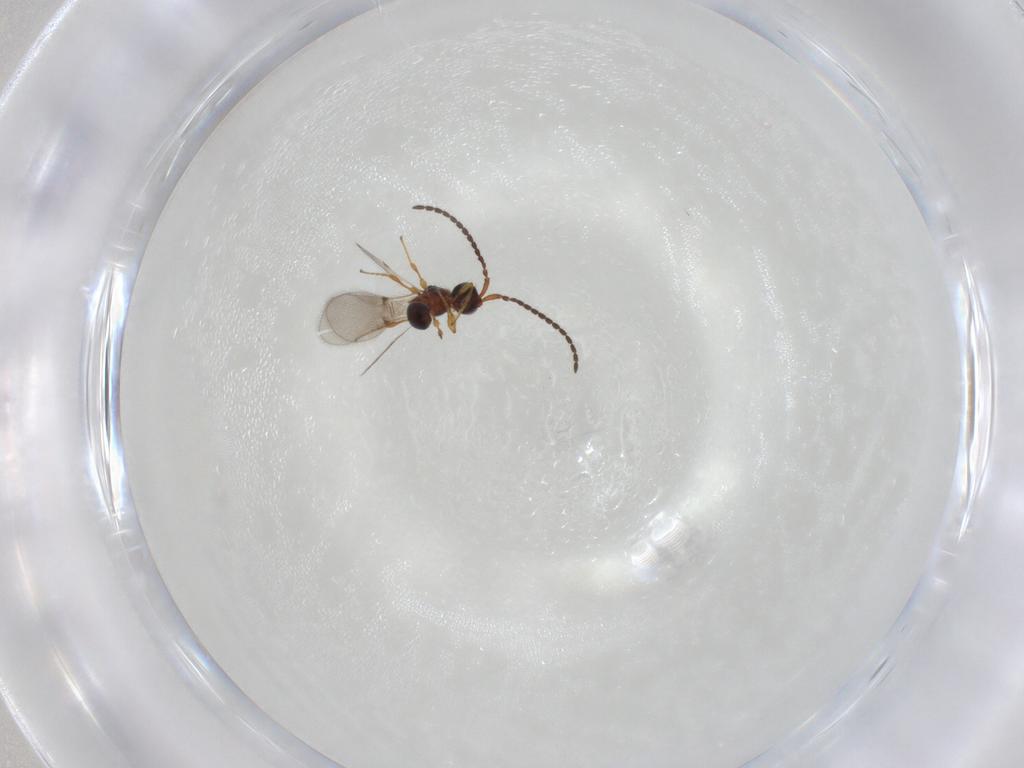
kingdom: Animalia
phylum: Arthropoda
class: Insecta
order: Hymenoptera
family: Diapriidae
